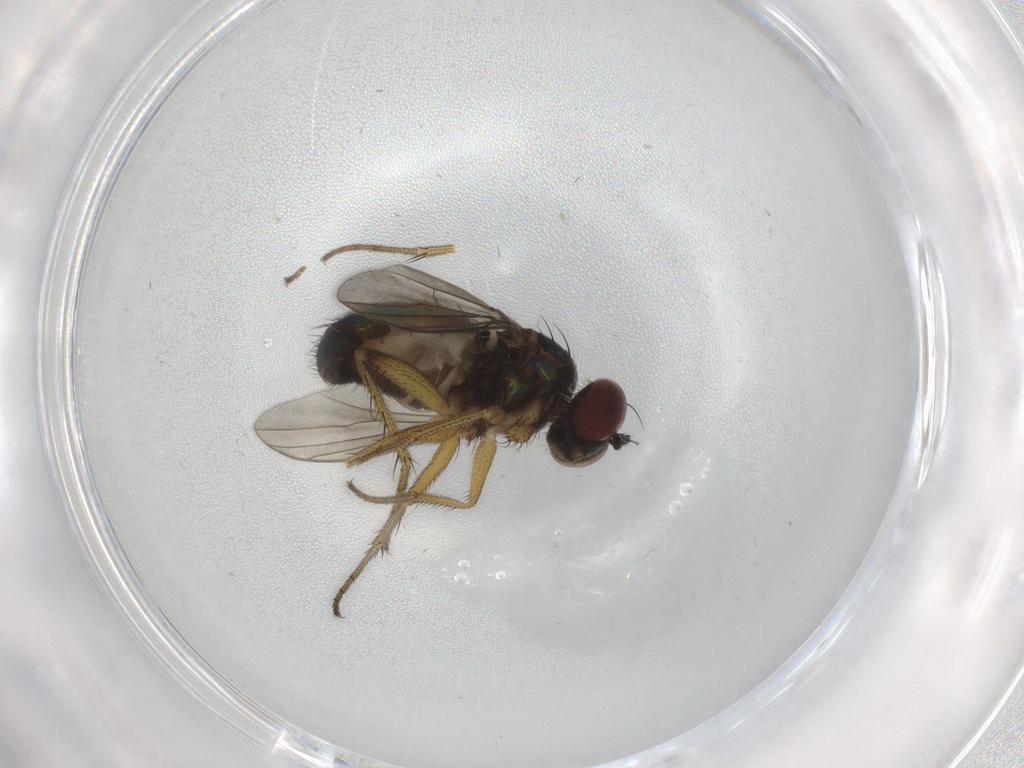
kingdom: Animalia
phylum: Arthropoda
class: Insecta
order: Diptera
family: Dolichopodidae
